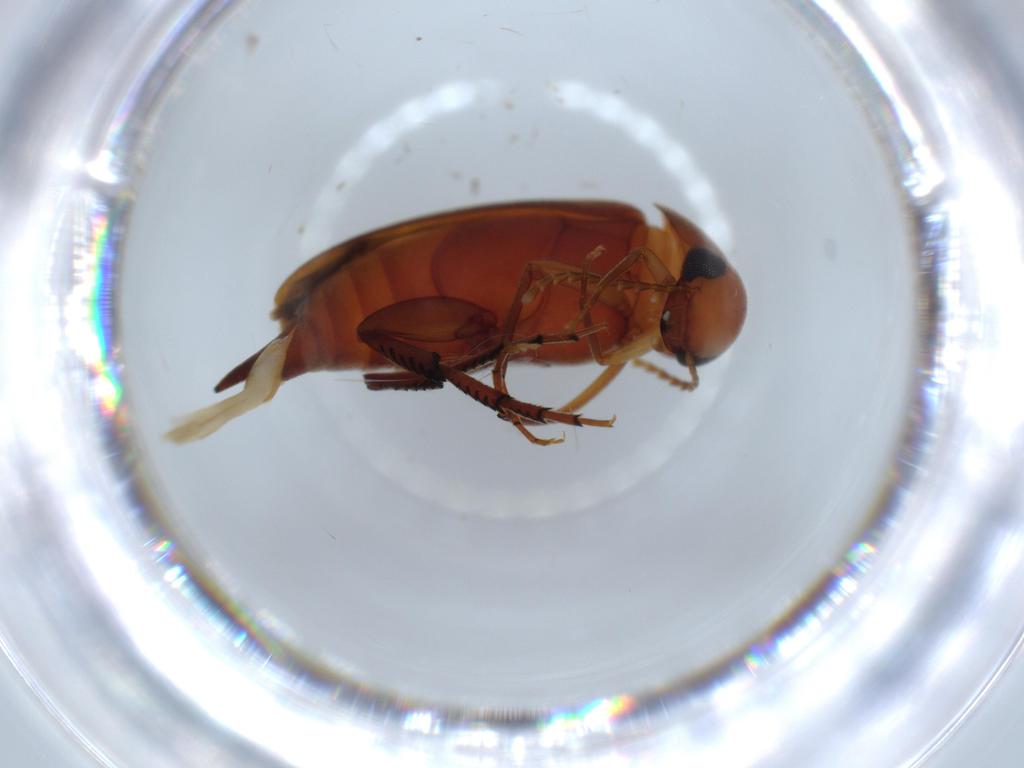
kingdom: Animalia
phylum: Arthropoda
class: Insecta
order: Coleoptera
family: Mordellidae
